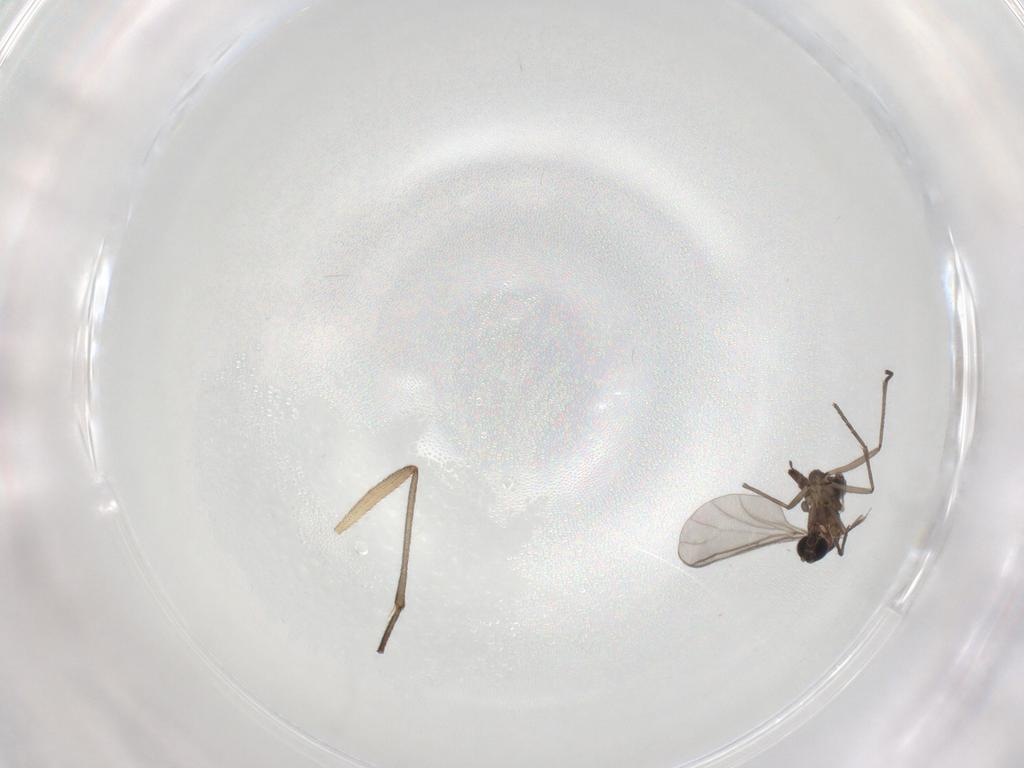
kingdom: Animalia
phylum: Arthropoda
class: Insecta
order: Diptera
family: Sciaridae
